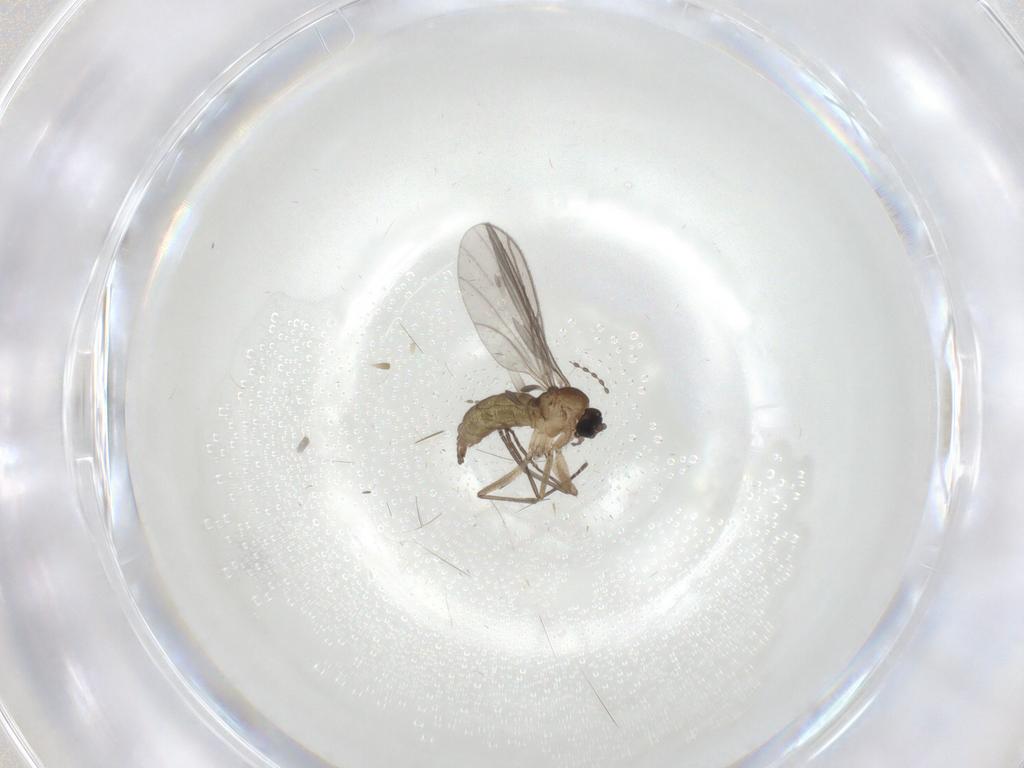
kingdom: Animalia
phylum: Arthropoda
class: Insecta
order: Diptera
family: Sciaridae
